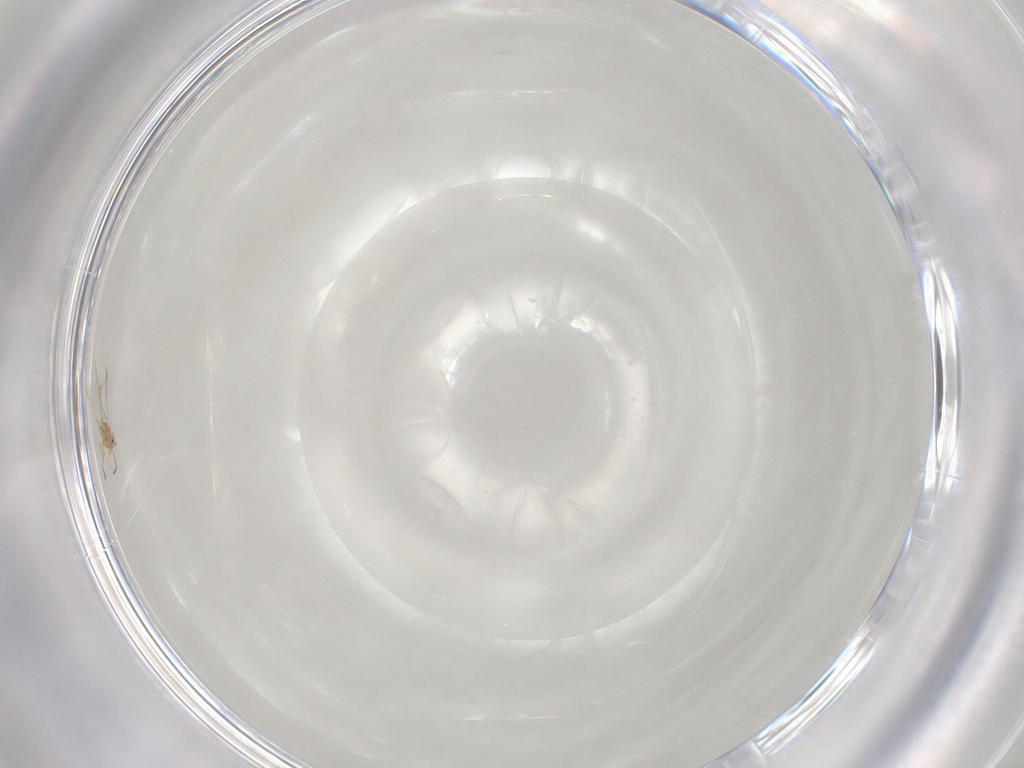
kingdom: Animalia
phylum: Arthropoda
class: Insecta
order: Hymenoptera
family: Mymaridae
